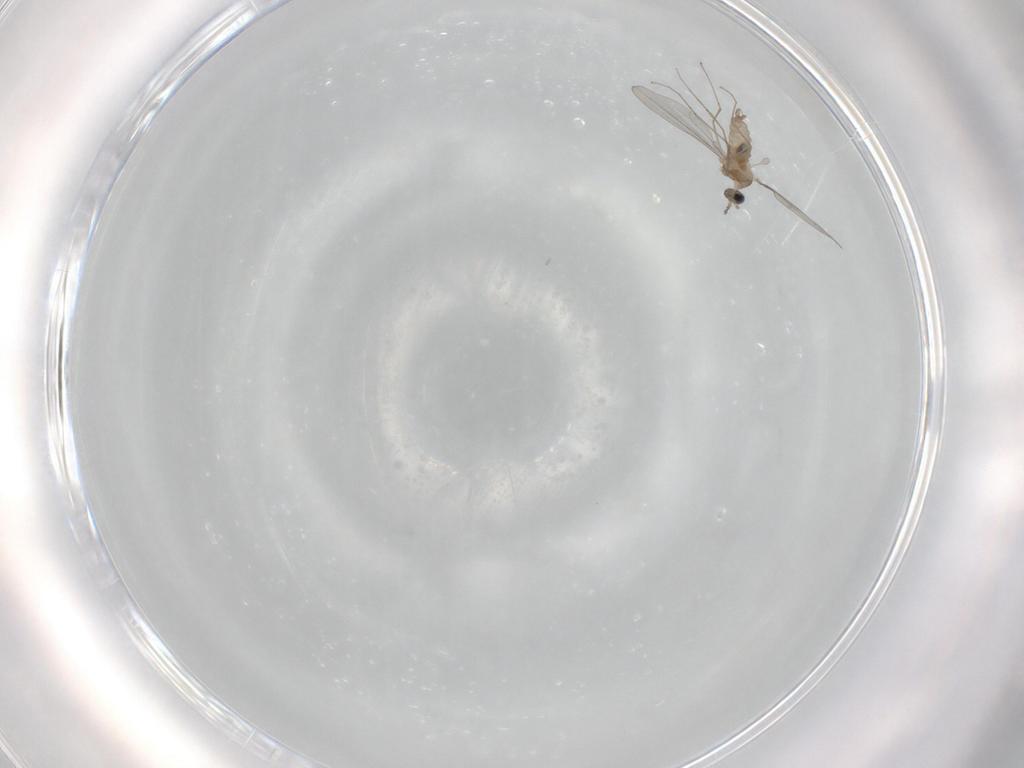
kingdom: Animalia
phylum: Arthropoda
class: Insecta
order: Diptera
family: Cecidomyiidae
